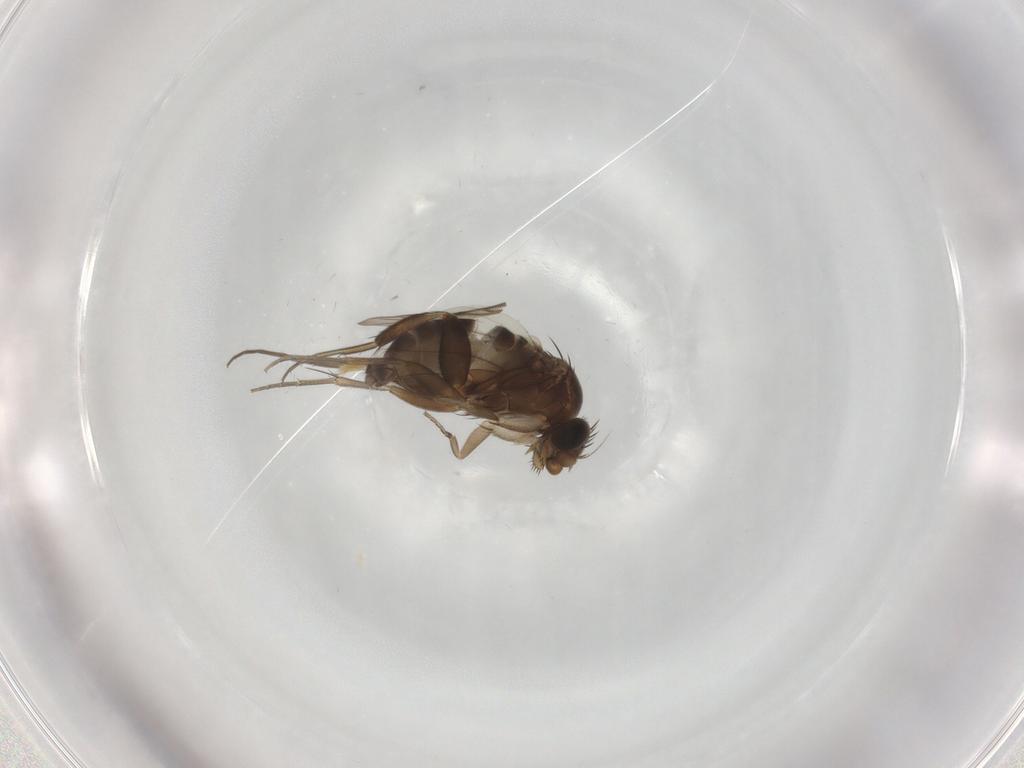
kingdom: Animalia
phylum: Arthropoda
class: Insecta
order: Diptera
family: Phoridae
